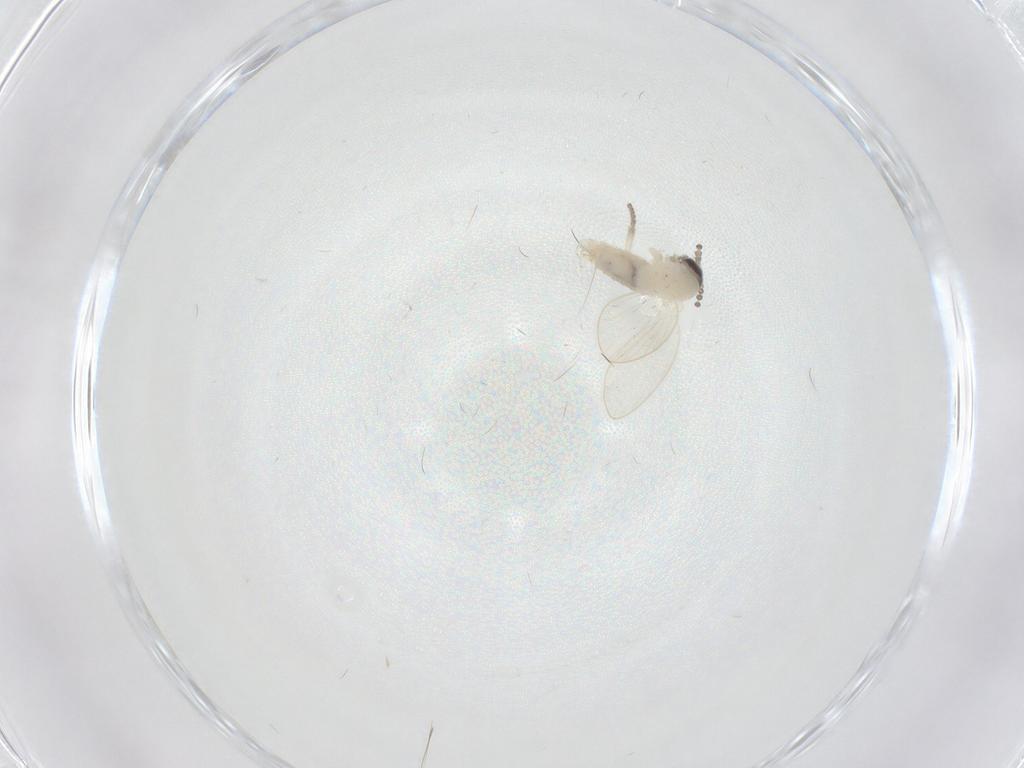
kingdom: Animalia
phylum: Arthropoda
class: Insecta
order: Diptera
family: Psychodidae
